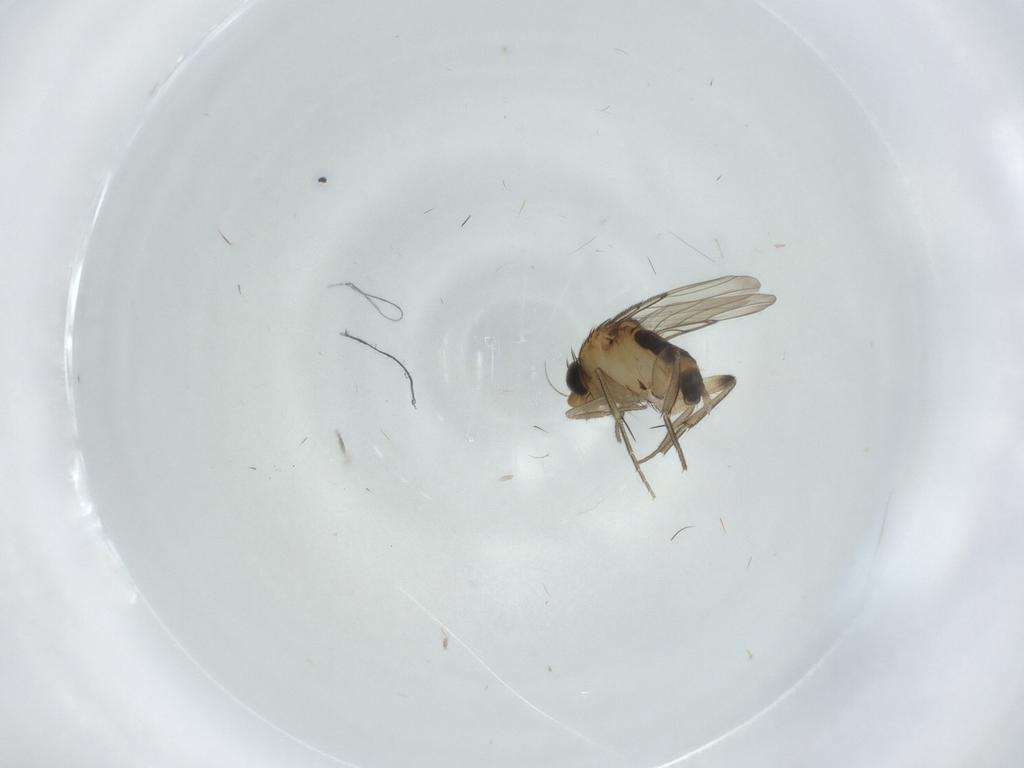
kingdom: Animalia
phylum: Arthropoda
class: Insecta
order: Diptera
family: Phoridae
